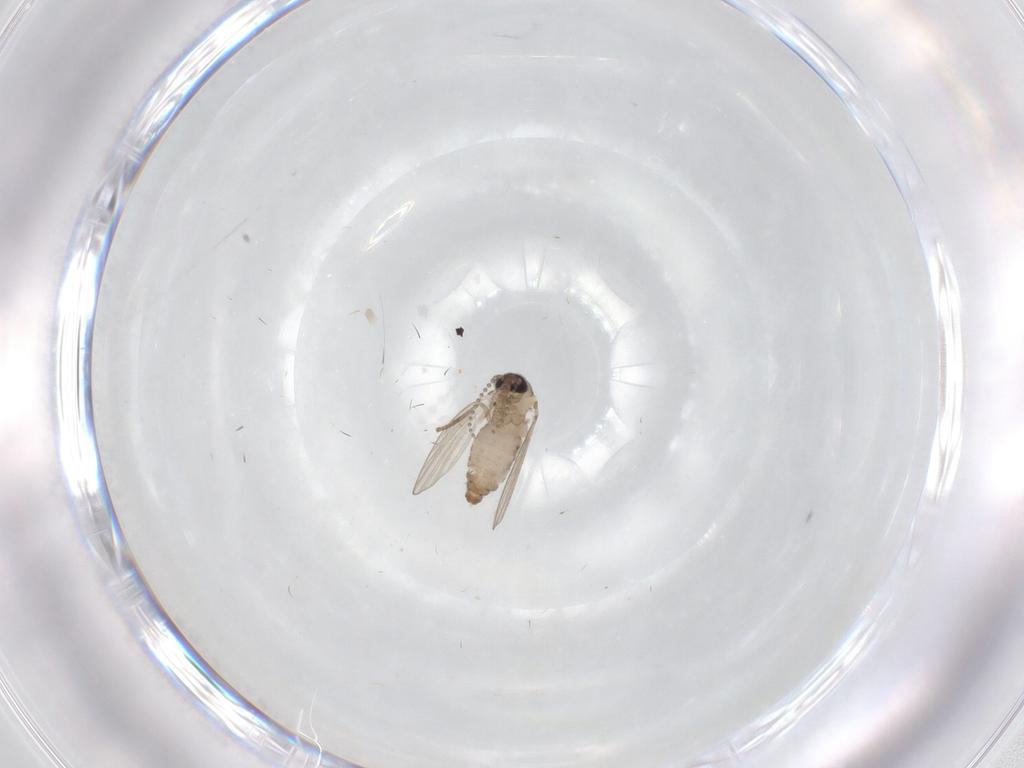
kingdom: Animalia
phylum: Arthropoda
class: Insecta
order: Diptera
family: Psychodidae
